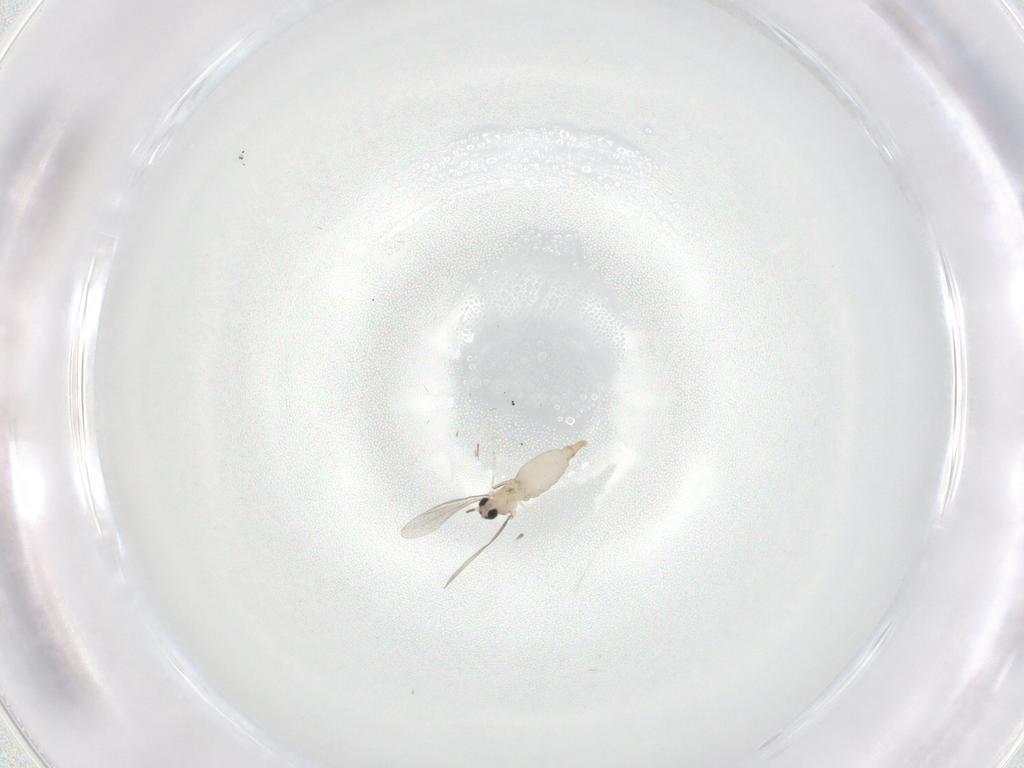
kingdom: Animalia
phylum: Arthropoda
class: Insecta
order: Diptera
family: Cecidomyiidae
